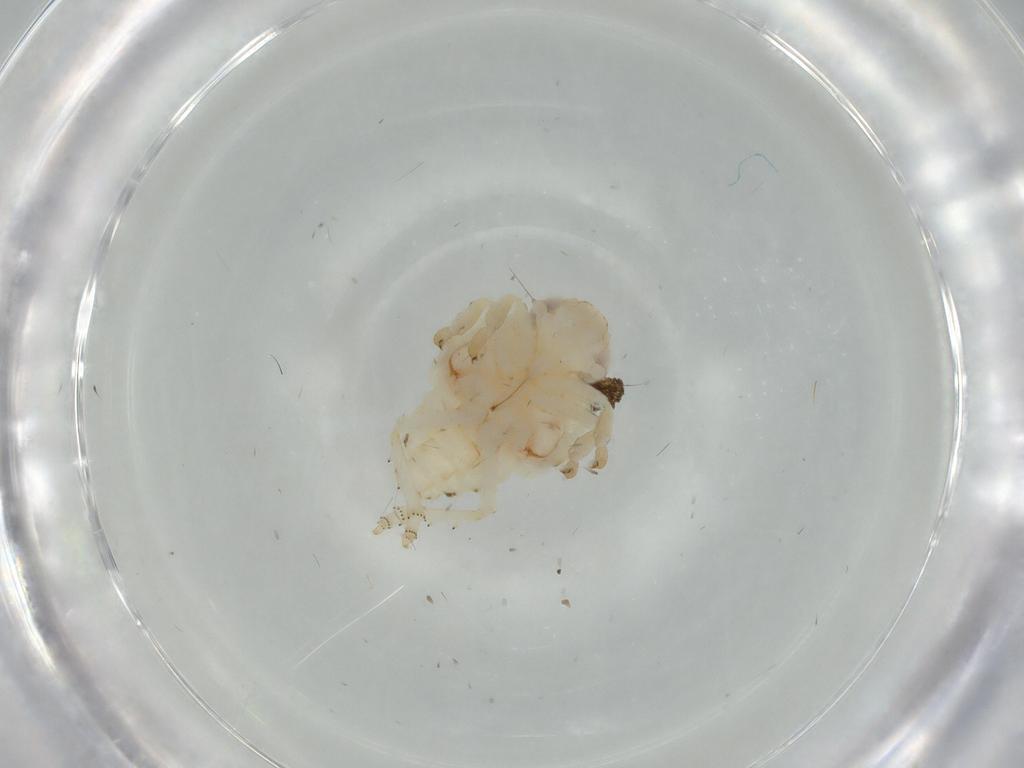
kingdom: Animalia
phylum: Arthropoda
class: Insecta
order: Hemiptera
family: Nogodinidae
